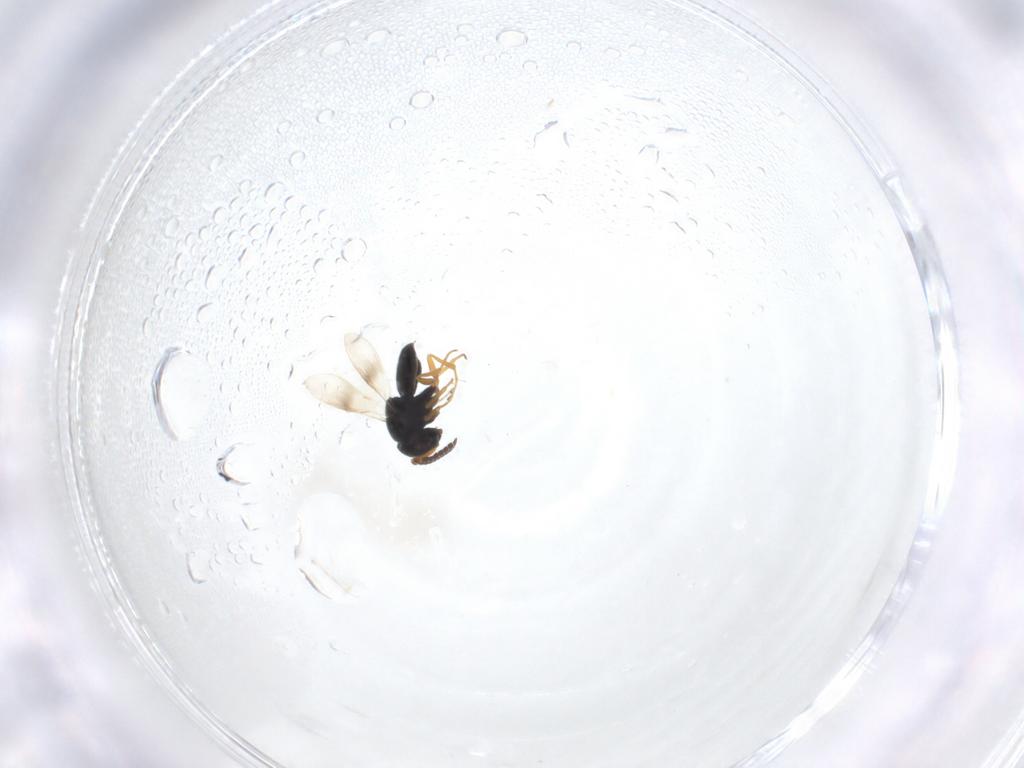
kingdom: Animalia
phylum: Arthropoda
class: Insecta
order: Hymenoptera
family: Scelionidae
